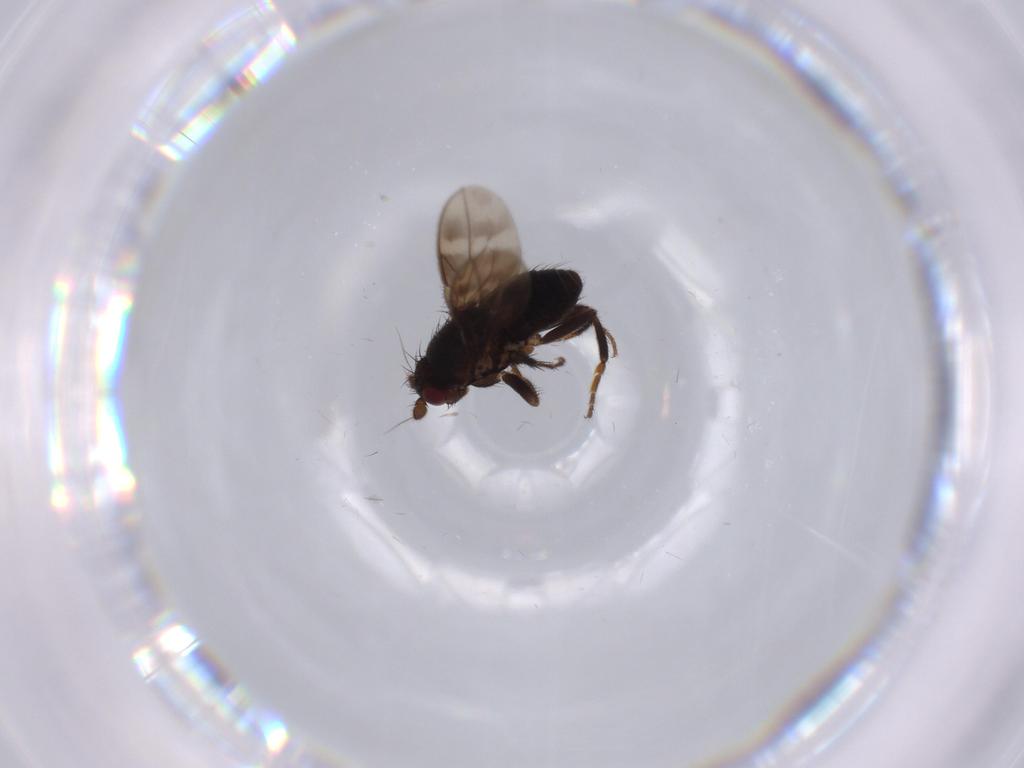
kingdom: Animalia
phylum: Arthropoda
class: Insecta
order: Diptera
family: Sphaeroceridae
